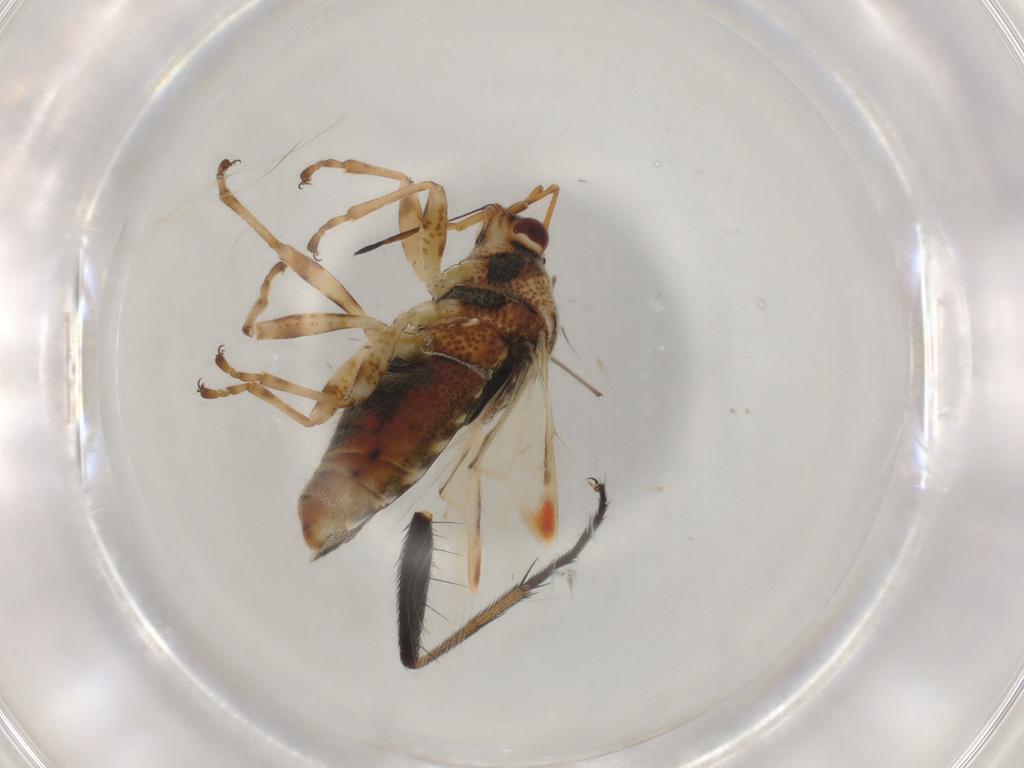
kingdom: Animalia
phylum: Arthropoda
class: Insecta
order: Hemiptera
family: Lygaeidae
